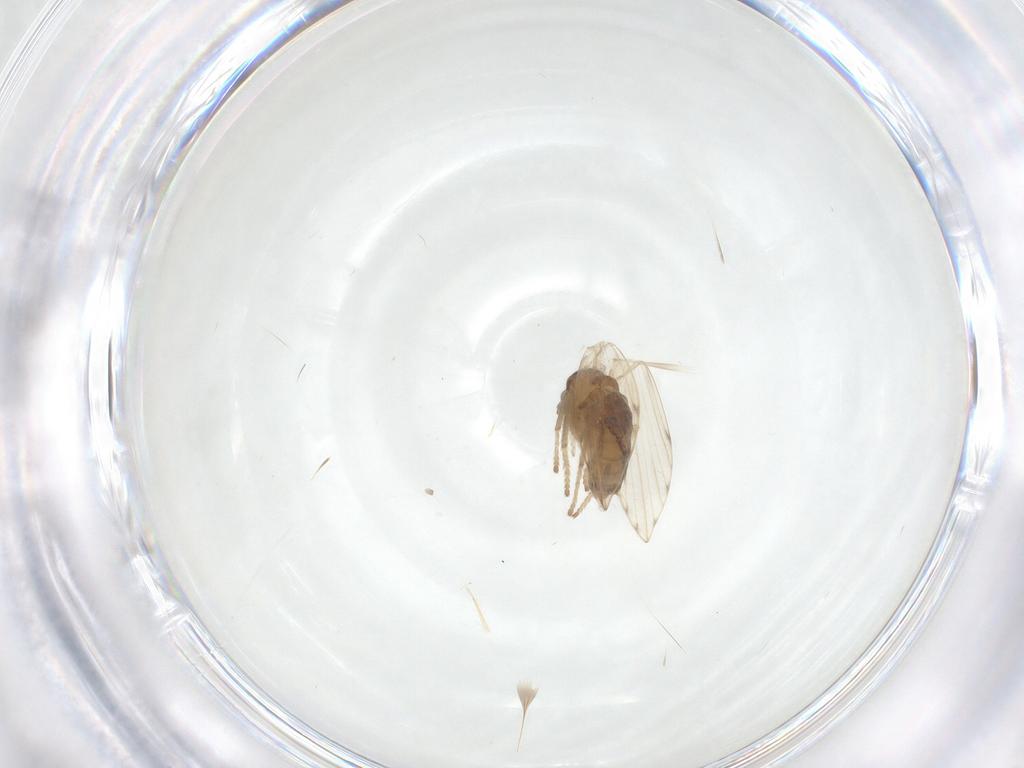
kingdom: Animalia
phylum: Arthropoda
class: Insecta
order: Diptera
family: Psychodidae
